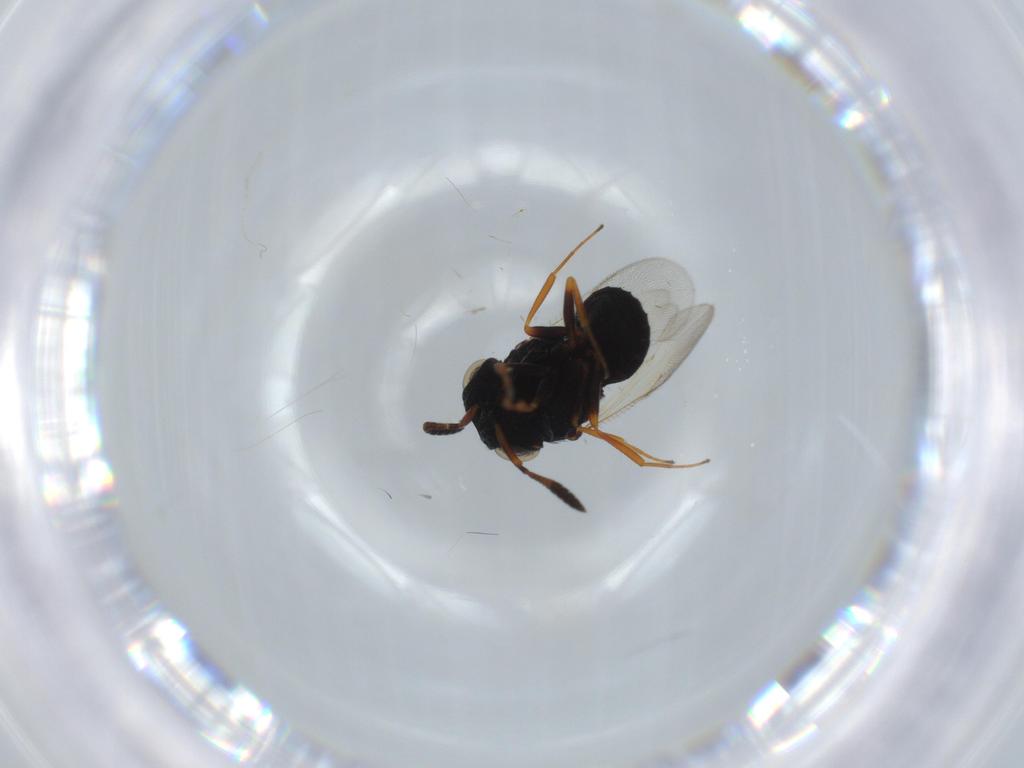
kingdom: Animalia
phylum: Arthropoda
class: Insecta
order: Hymenoptera
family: Scelionidae
